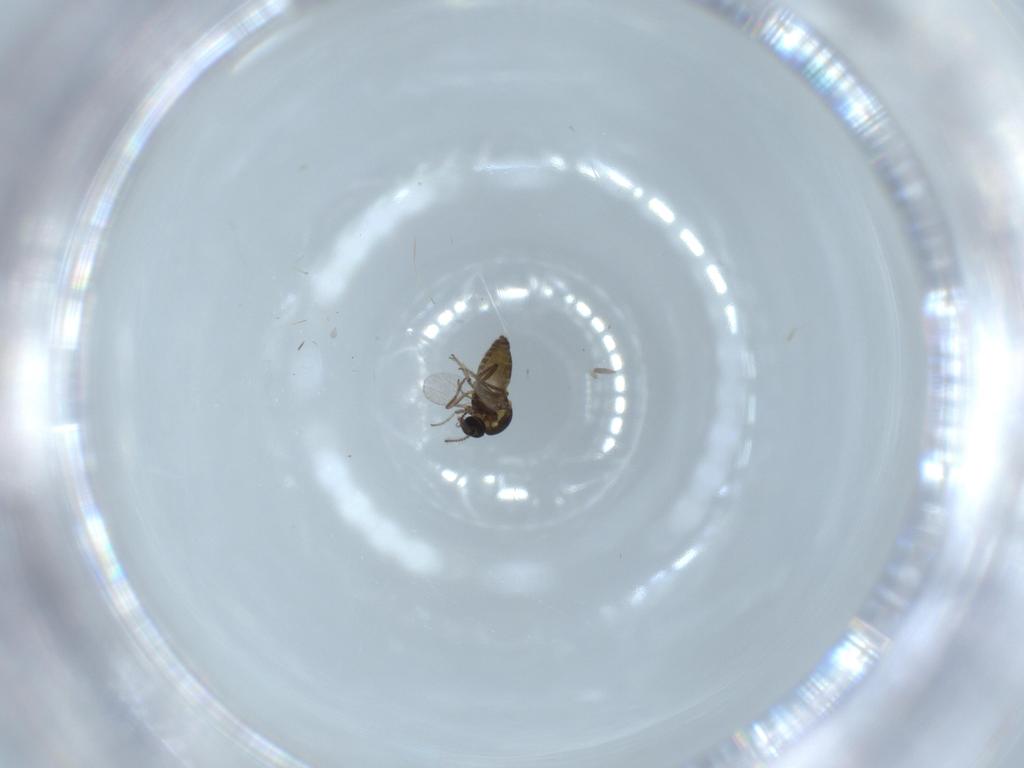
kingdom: Animalia
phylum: Arthropoda
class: Insecta
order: Diptera
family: Ceratopogonidae
